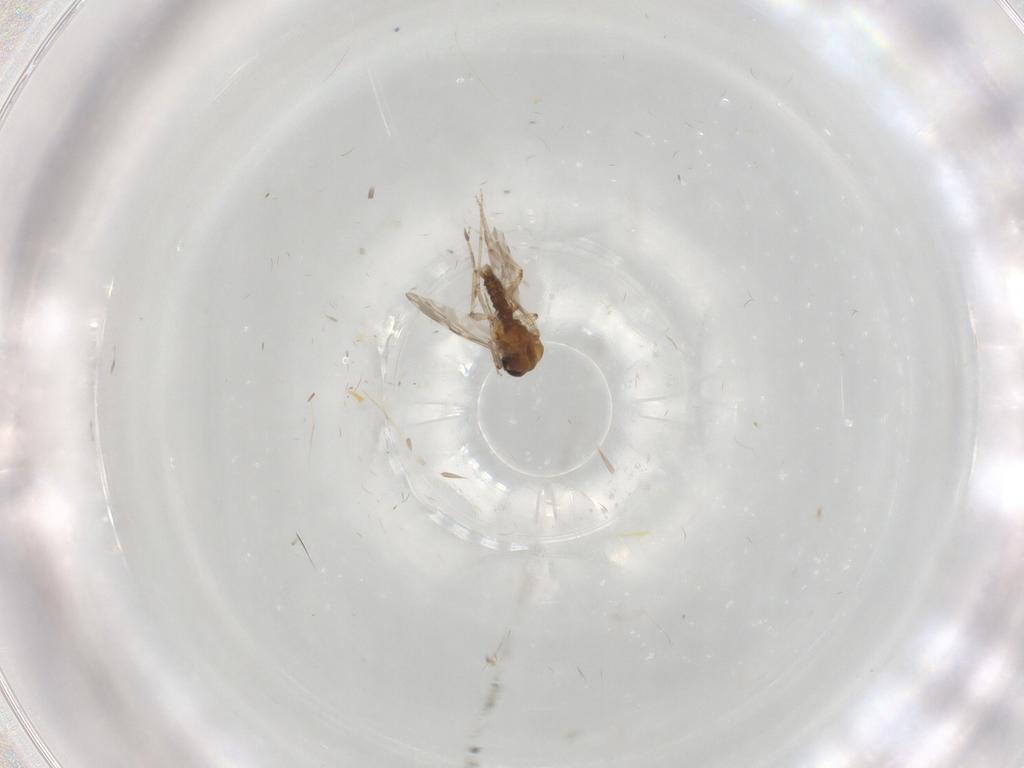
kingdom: Animalia
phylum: Arthropoda
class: Insecta
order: Diptera
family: Ceratopogonidae
